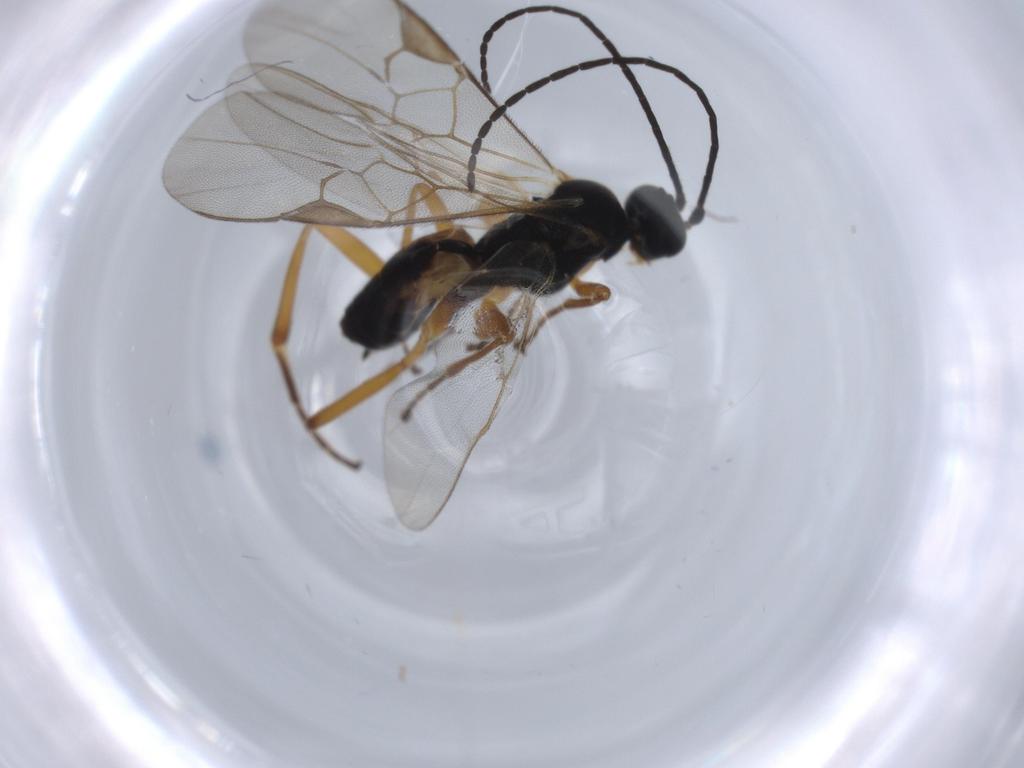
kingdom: Animalia
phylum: Arthropoda
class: Insecta
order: Hymenoptera
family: Braconidae
